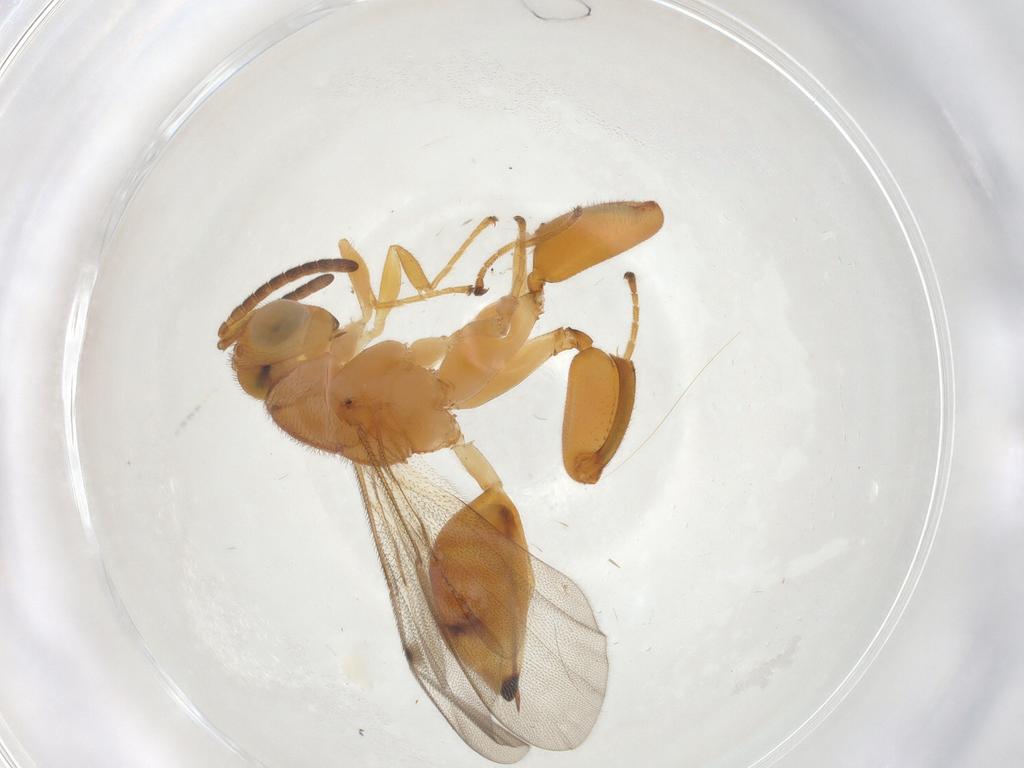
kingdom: Animalia
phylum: Arthropoda
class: Insecta
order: Hymenoptera
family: Chalcididae
